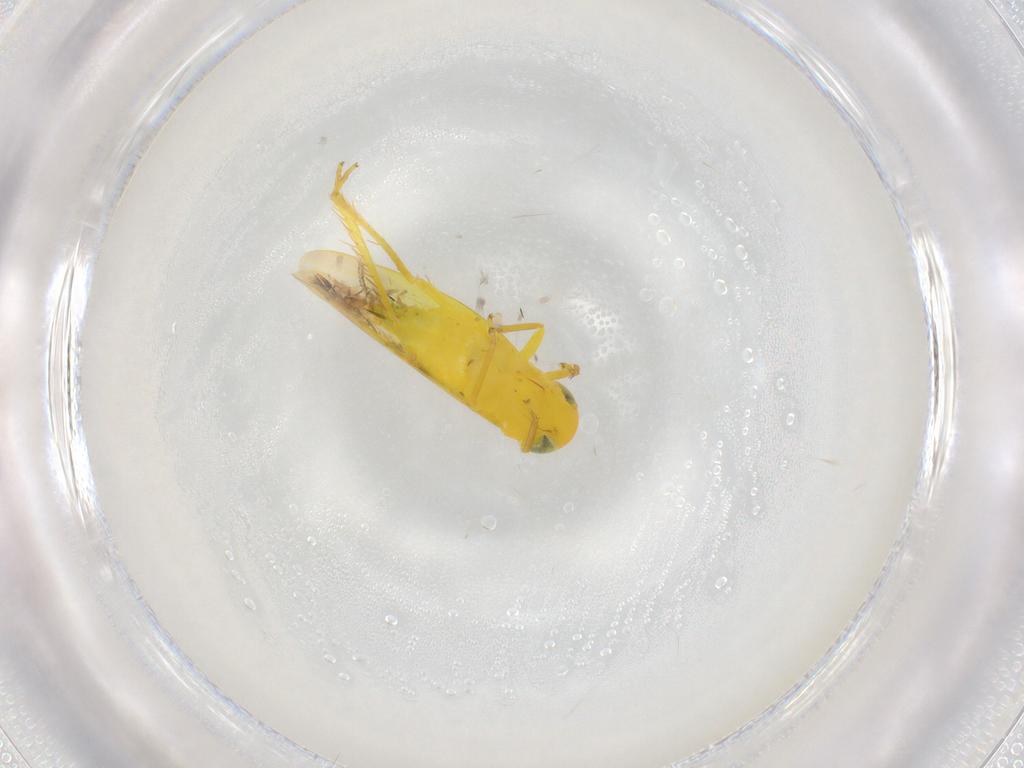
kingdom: Animalia
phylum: Arthropoda
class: Insecta
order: Hemiptera
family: Cicadellidae
